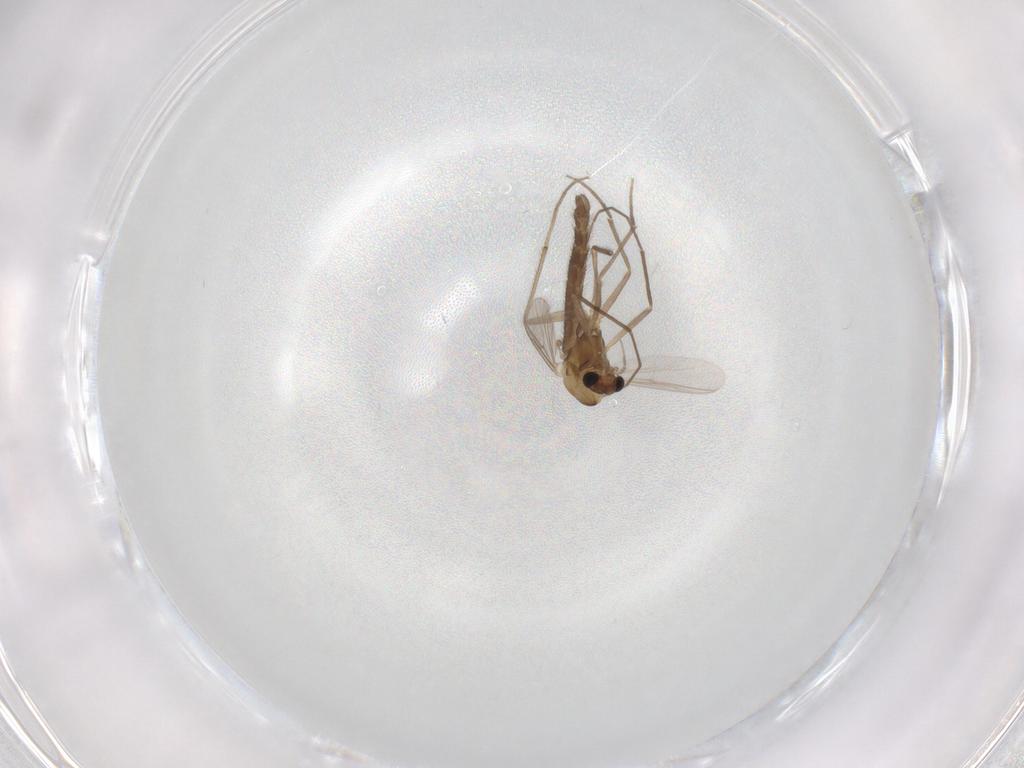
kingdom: Animalia
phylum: Arthropoda
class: Insecta
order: Diptera
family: Chironomidae
